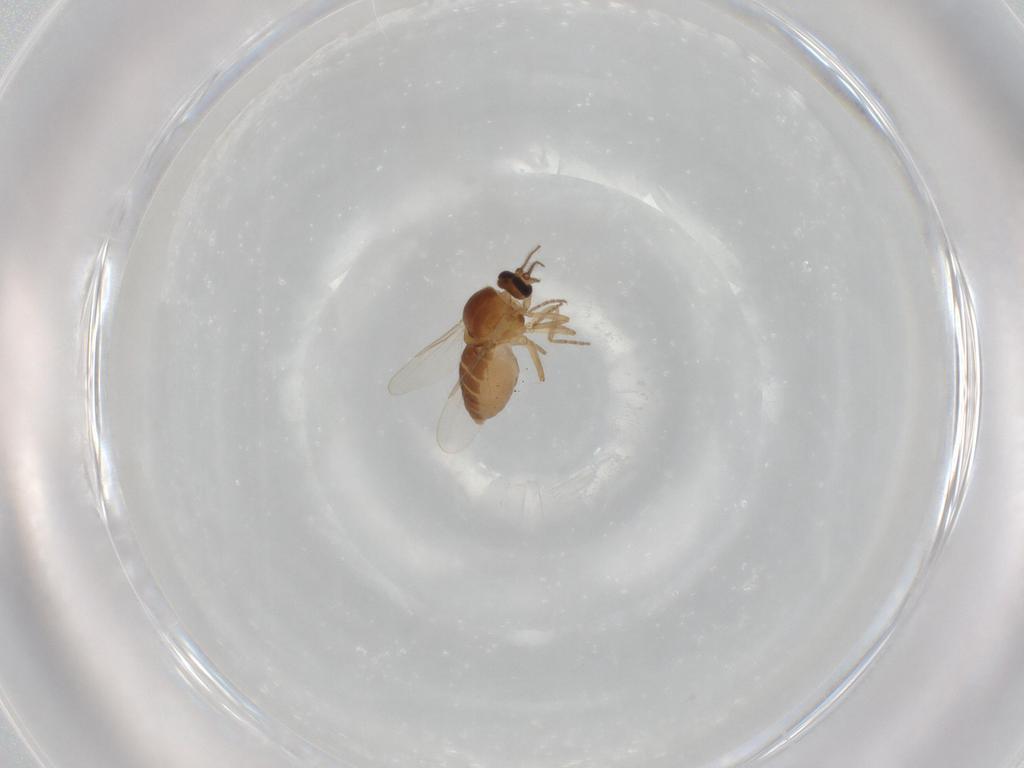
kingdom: Animalia
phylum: Arthropoda
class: Insecta
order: Diptera
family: Ceratopogonidae
